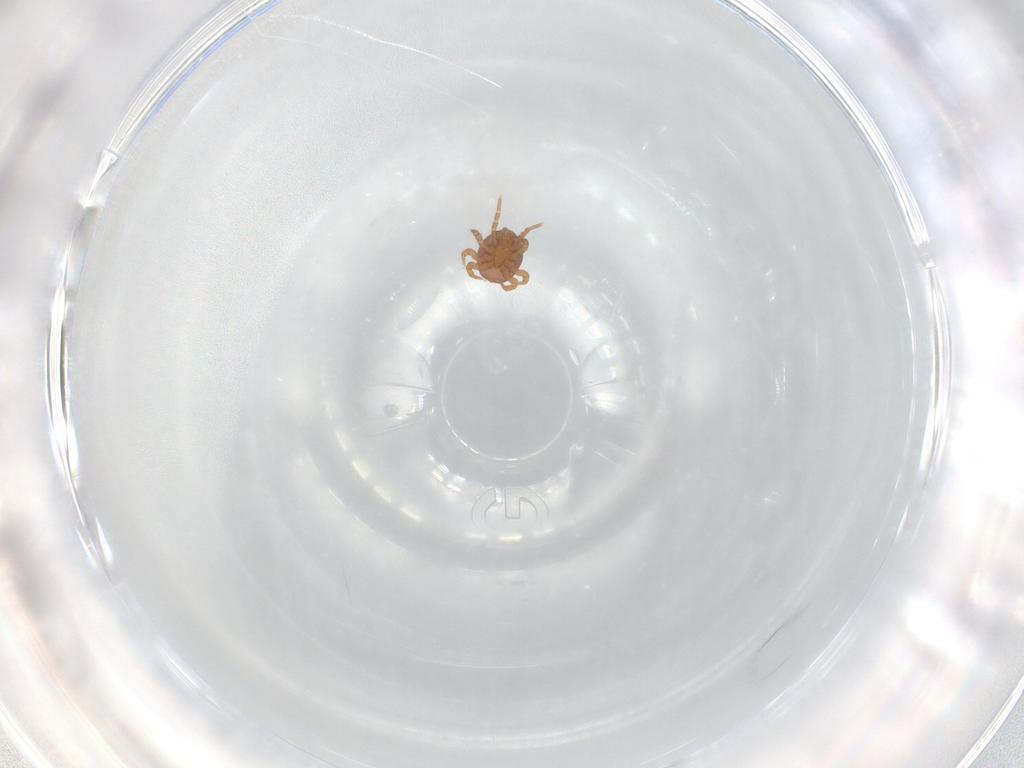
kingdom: Animalia
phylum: Arthropoda
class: Arachnida
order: Mesostigmata
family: Eviphididae
